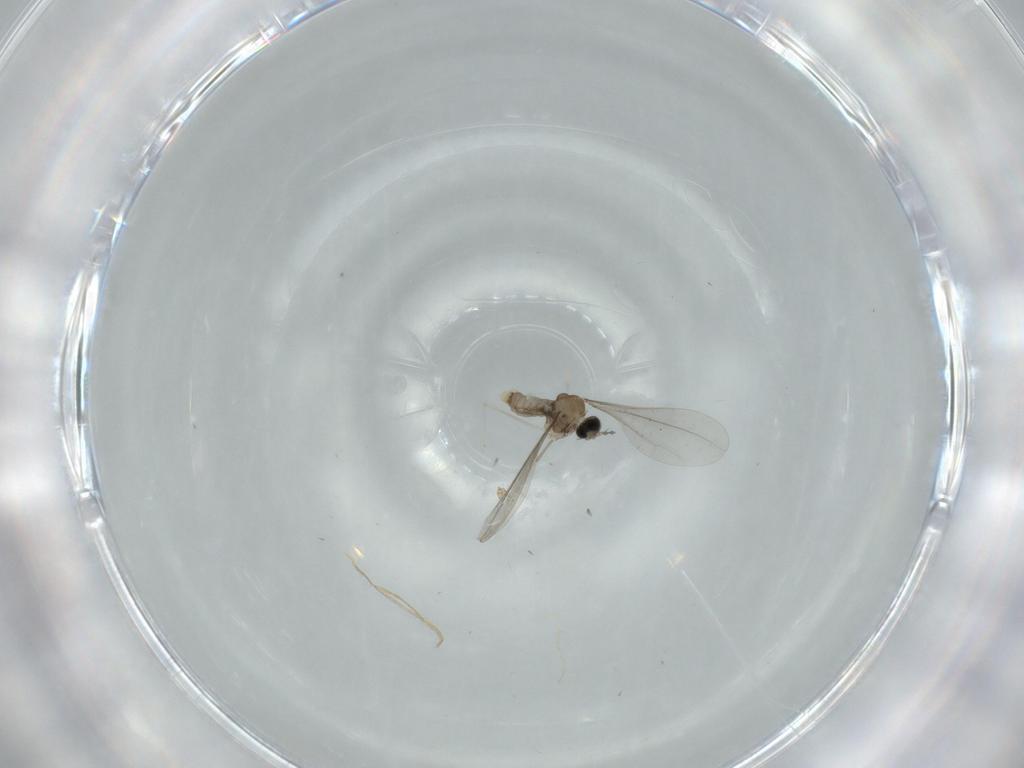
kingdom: Animalia
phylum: Arthropoda
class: Insecta
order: Diptera
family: Cecidomyiidae
